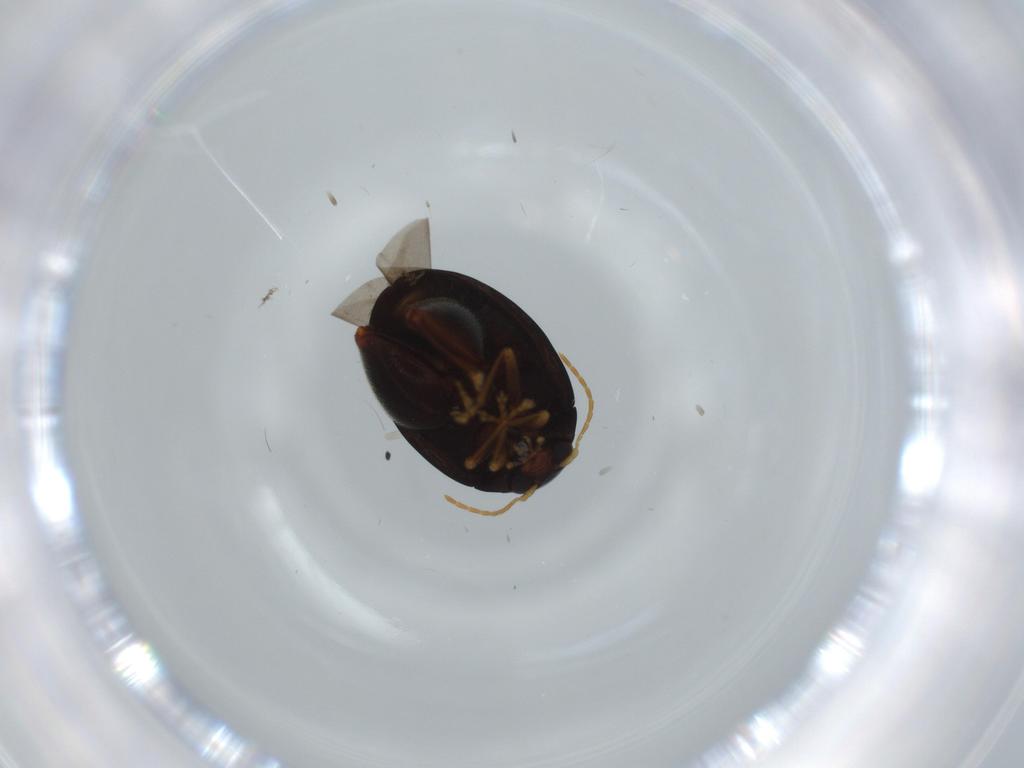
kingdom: Animalia
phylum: Arthropoda
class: Insecta
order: Coleoptera
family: Chrysomelidae
